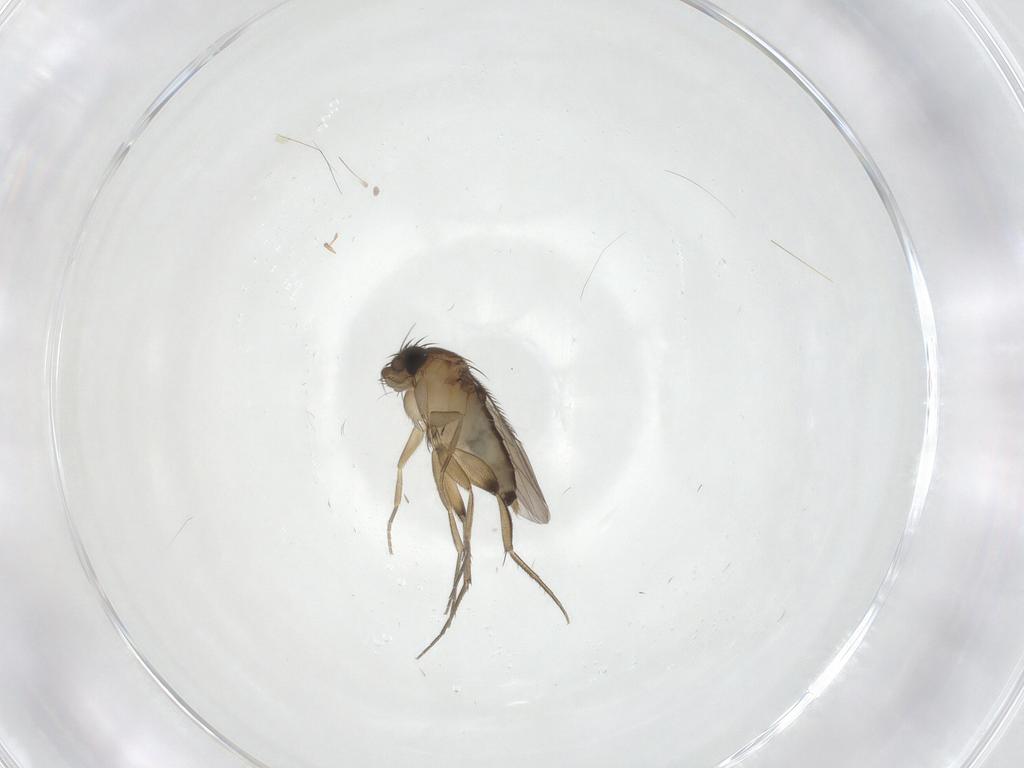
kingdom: Animalia
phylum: Arthropoda
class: Insecta
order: Diptera
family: Phoridae
